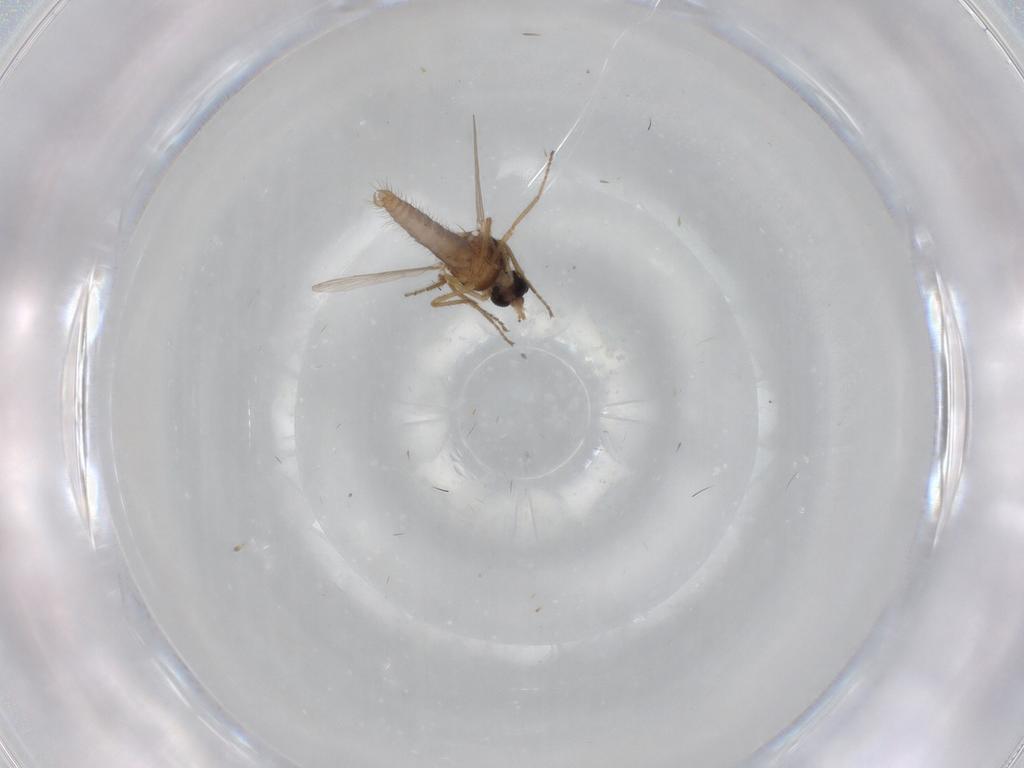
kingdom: Animalia
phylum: Arthropoda
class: Insecta
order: Diptera
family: Ceratopogonidae
